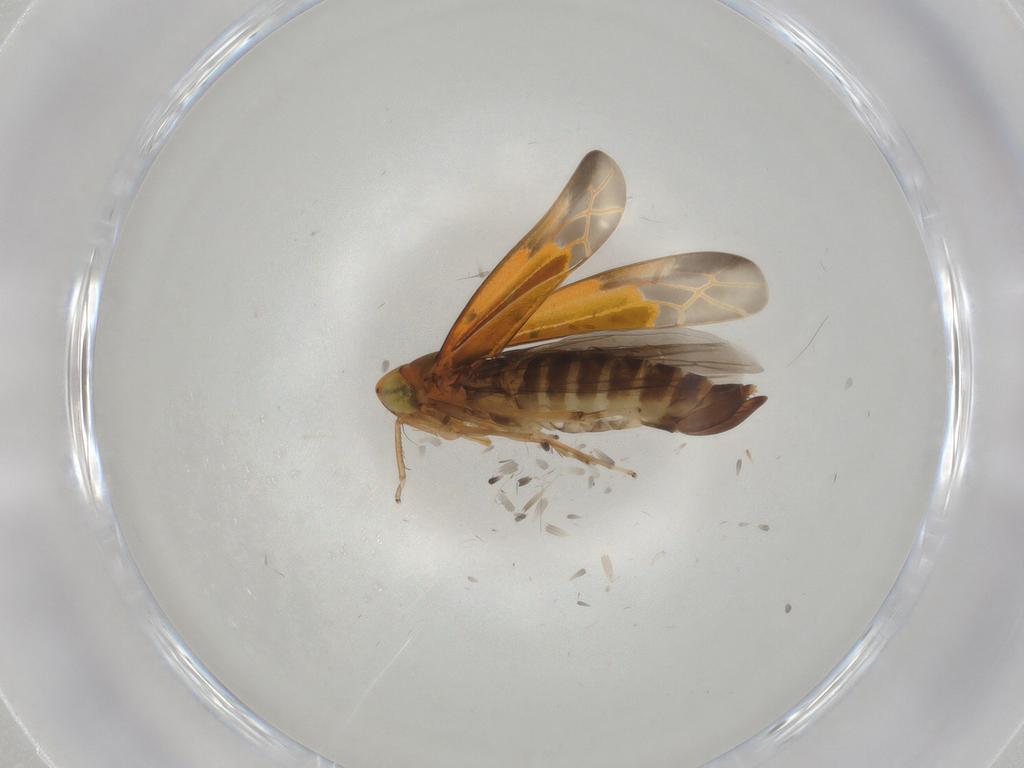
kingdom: Animalia
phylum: Arthropoda
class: Insecta
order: Hemiptera
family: Cicadellidae
